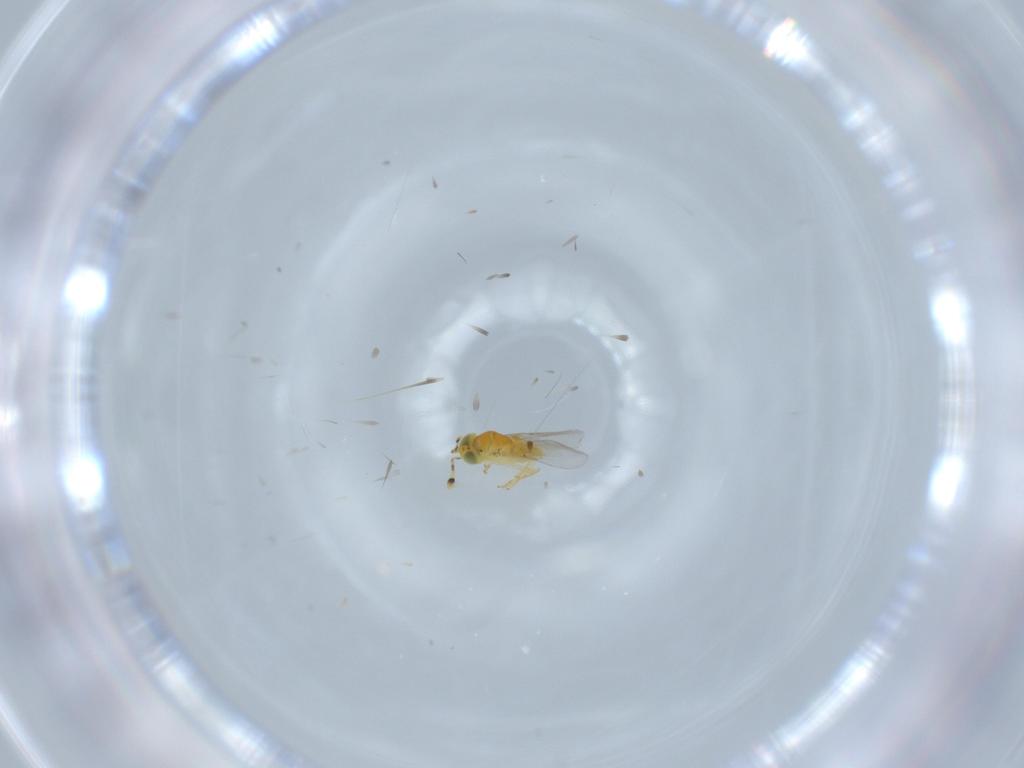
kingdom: Animalia
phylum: Arthropoda
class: Insecta
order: Hymenoptera
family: Encyrtidae
